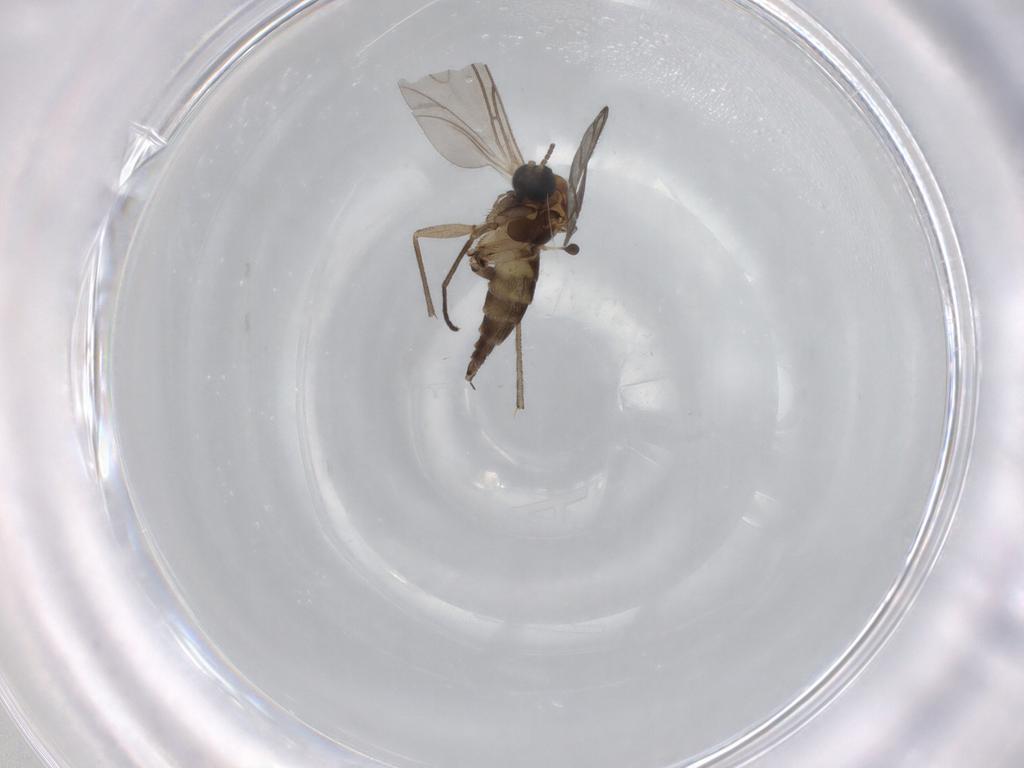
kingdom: Animalia
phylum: Arthropoda
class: Insecta
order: Diptera
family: Sciaridae
